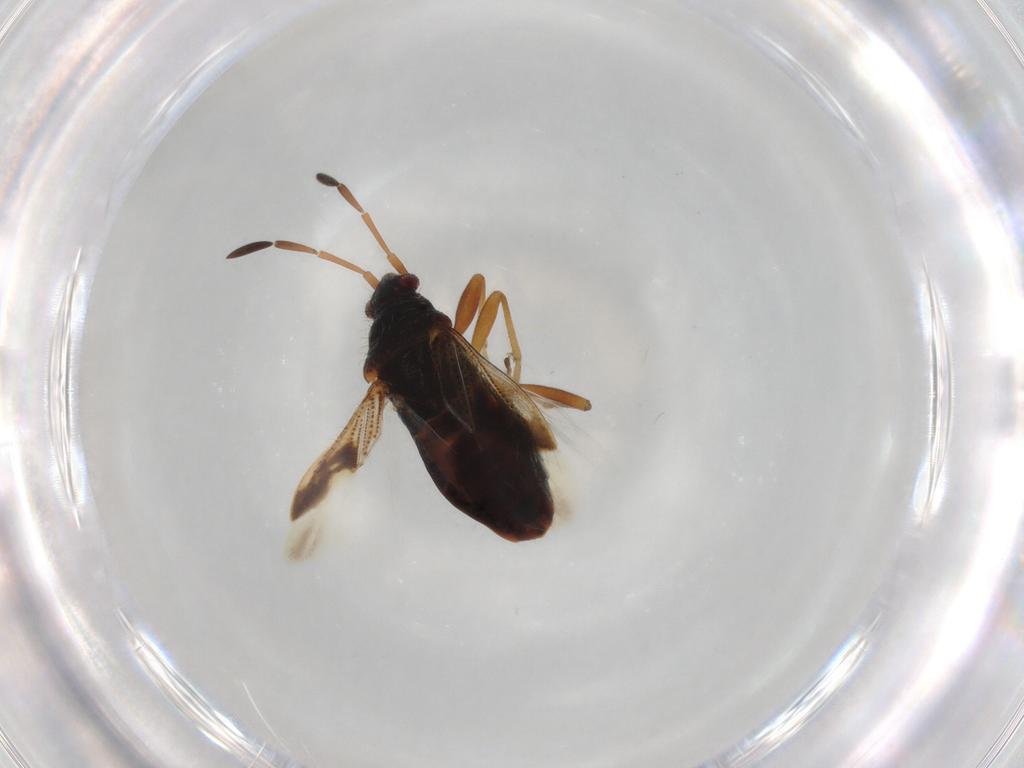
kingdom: Animalia
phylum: Arthropoda
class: Insecta
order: Hemiptera
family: Rhyparochromidae
